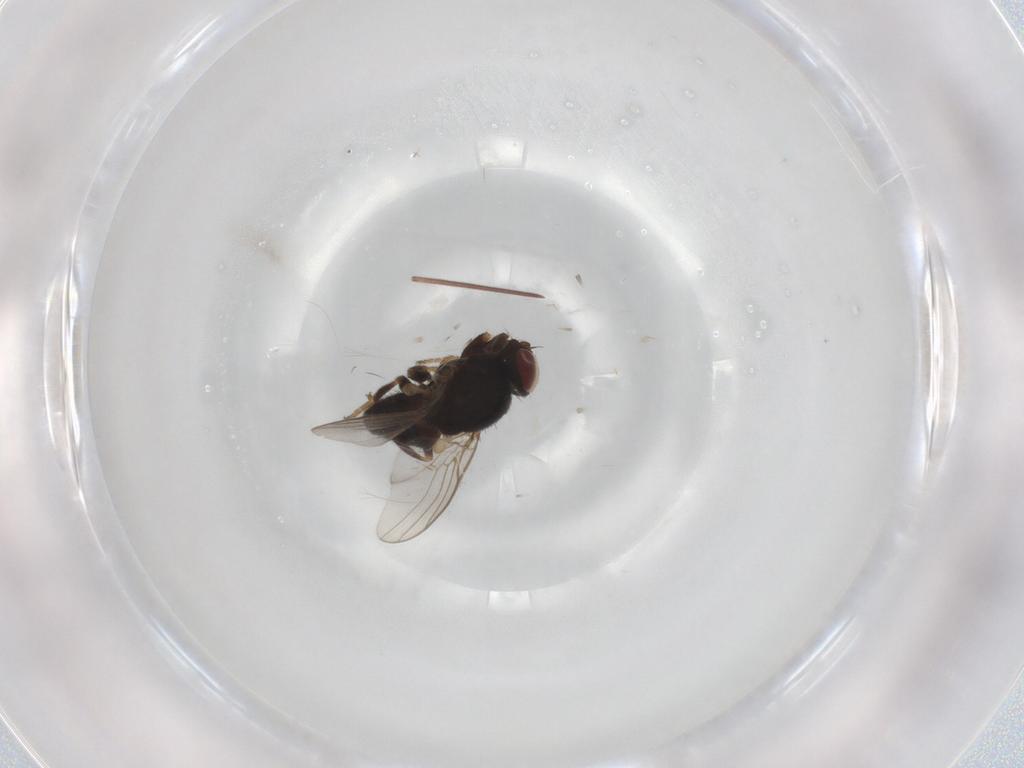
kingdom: Animalia
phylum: Arthropoda
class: Insecta
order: Diptera
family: Chloropidae
